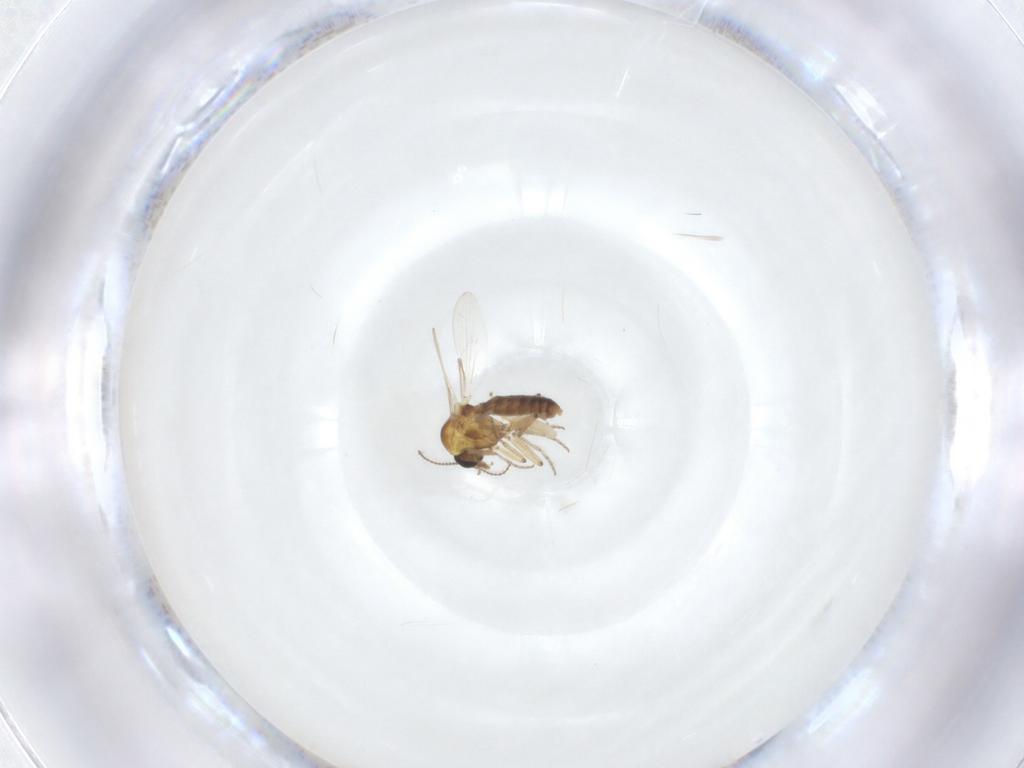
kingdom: Animalia
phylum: Arthropoda
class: Insecta
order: Diptera
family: Ceratopogonidae
